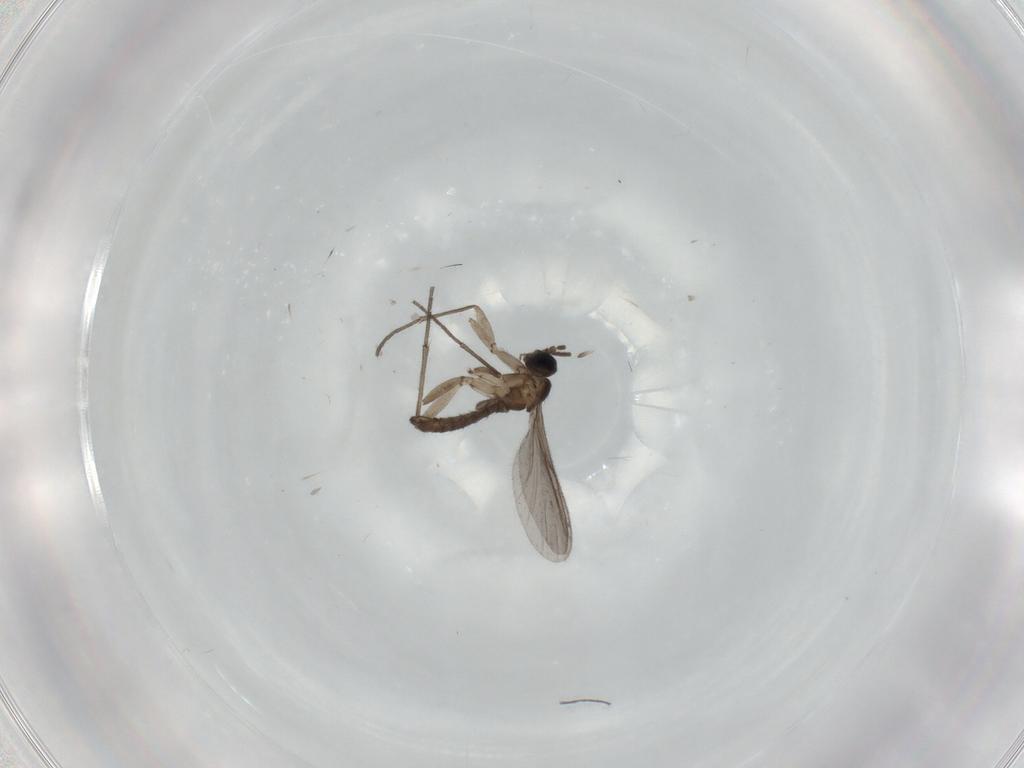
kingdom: Animalia
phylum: Arthropoda
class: Insecta
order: Diptera
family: Sciaridae
